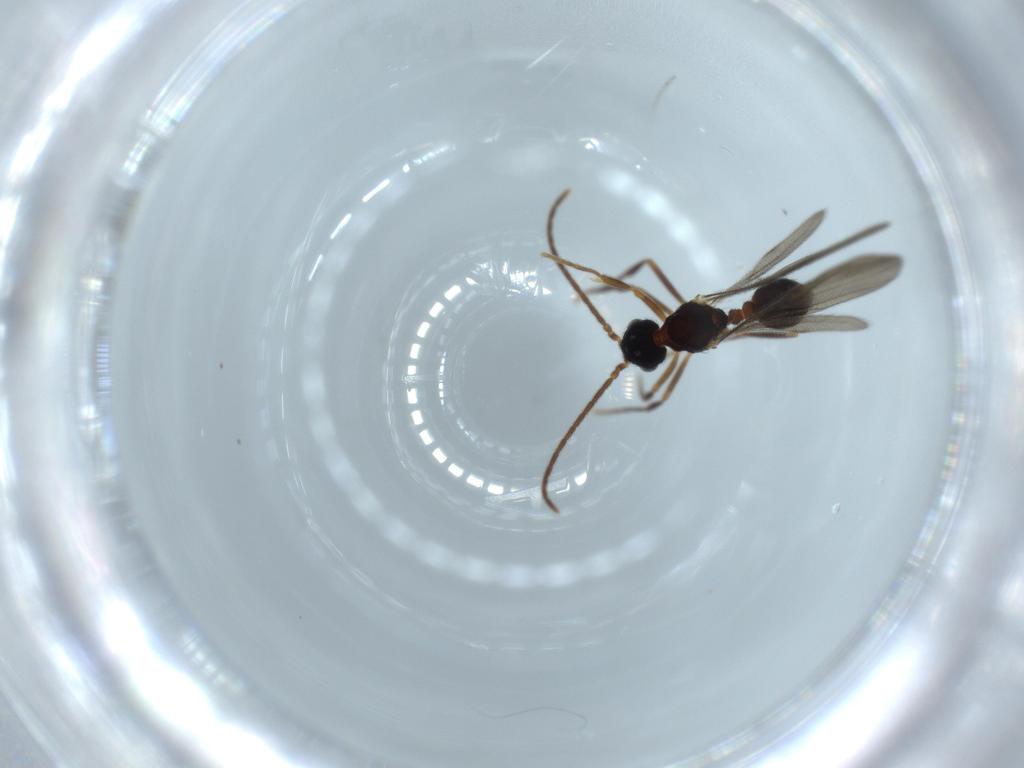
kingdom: Animalia
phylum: Arthropoda
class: Insecta
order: Hymenoptera
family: Formicidae
